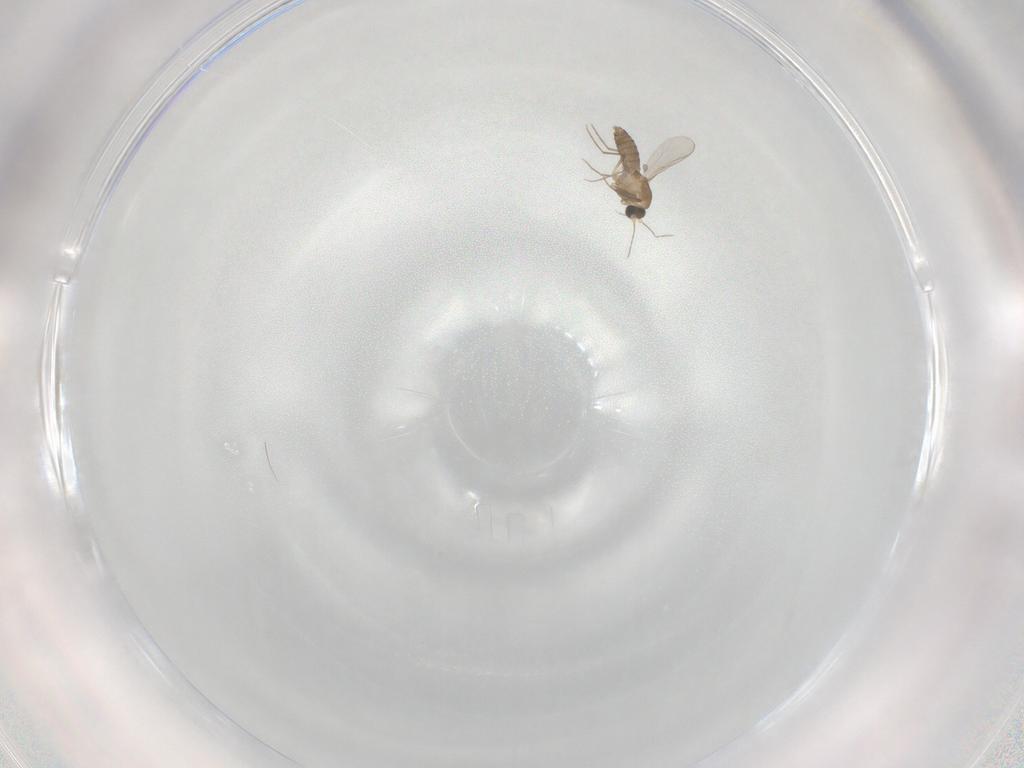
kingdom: Animalia
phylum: Arthropoda
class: Insecta
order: Diptera
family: Chironomidae
